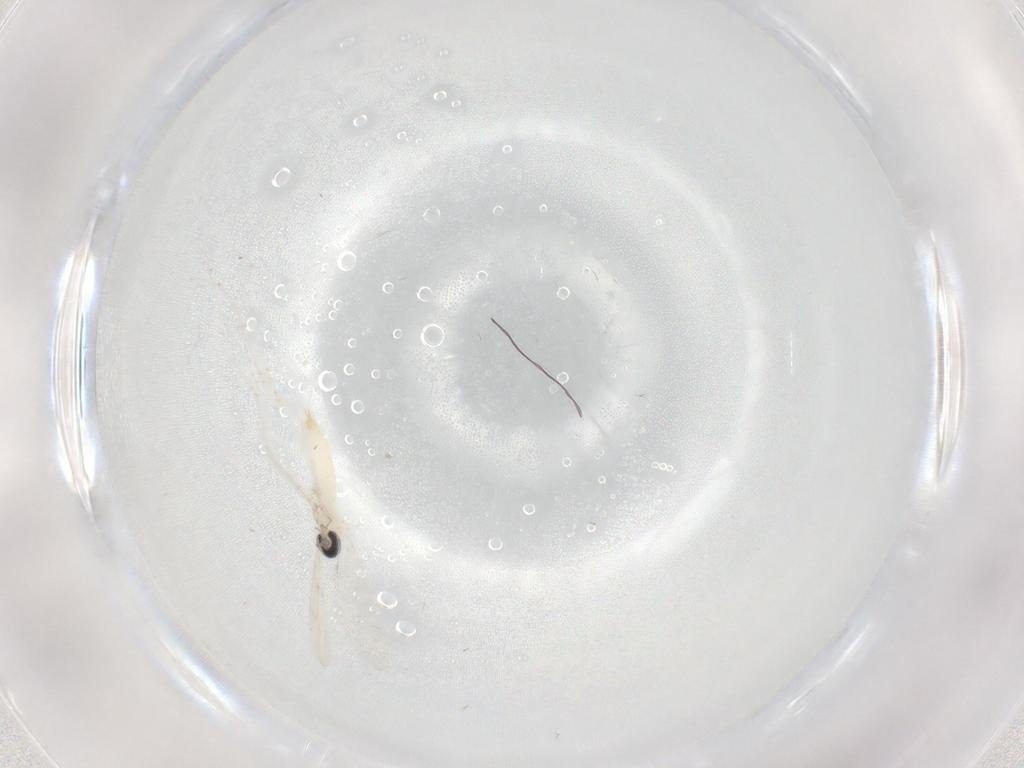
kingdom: Animalia
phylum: Arthropoda
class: Insecta
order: Diptera
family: Cecidomyiidae
